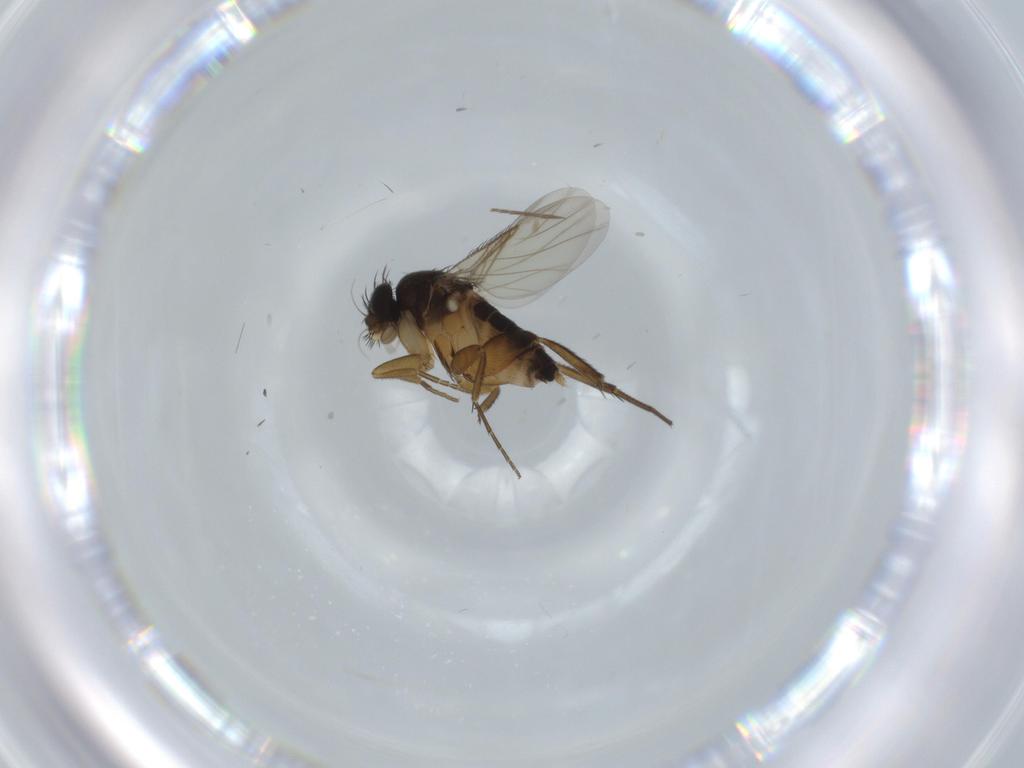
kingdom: Animalia
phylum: Arthropoda
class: Insecta
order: Diptera
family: Phoridae
